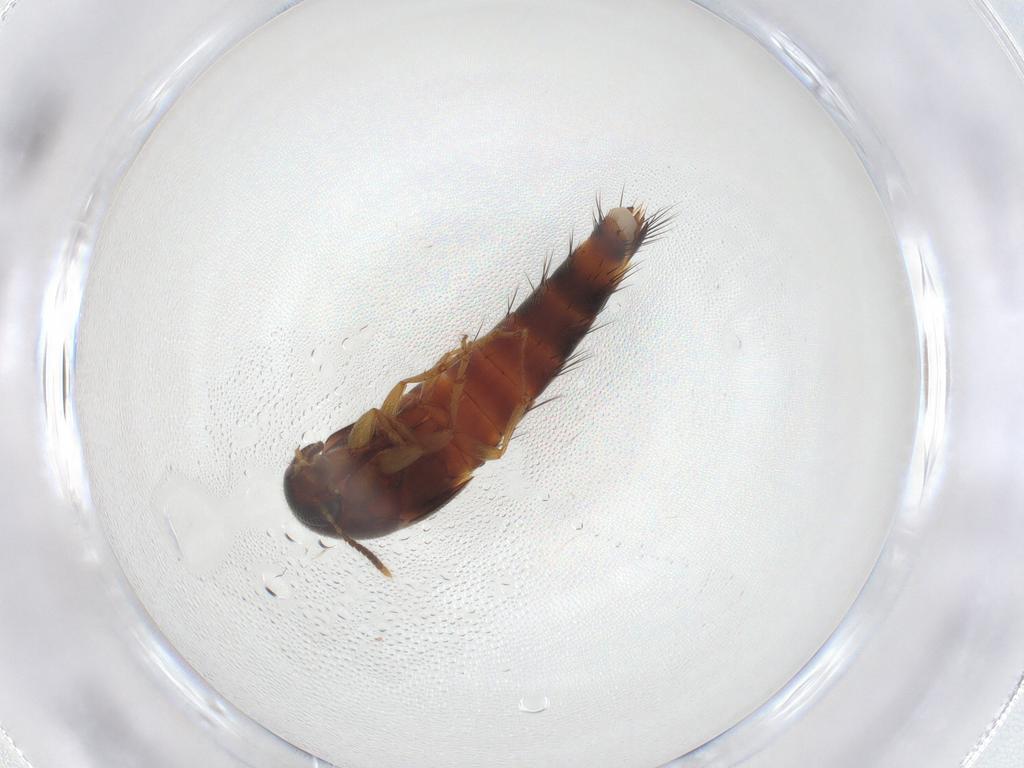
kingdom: Animalia
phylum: Arthropoda
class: Insecta
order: Coleoptera
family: Staphylinidae
